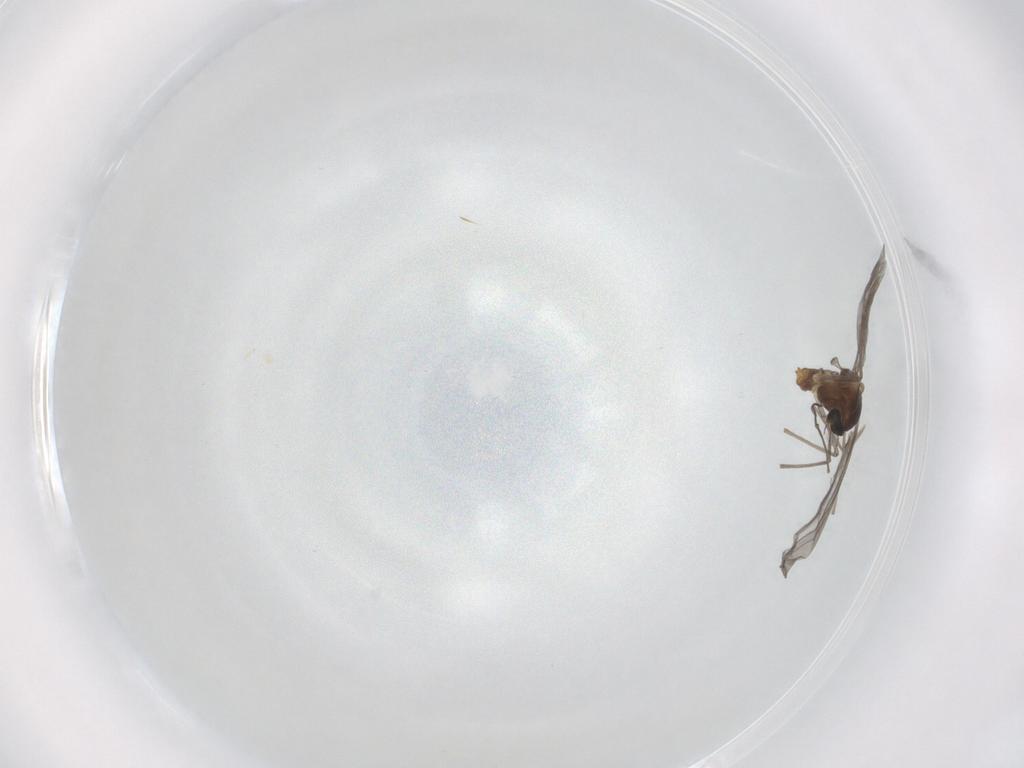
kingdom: Animalia
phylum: Arthropoda
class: Insecta
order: Diptera
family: Chironomidae
